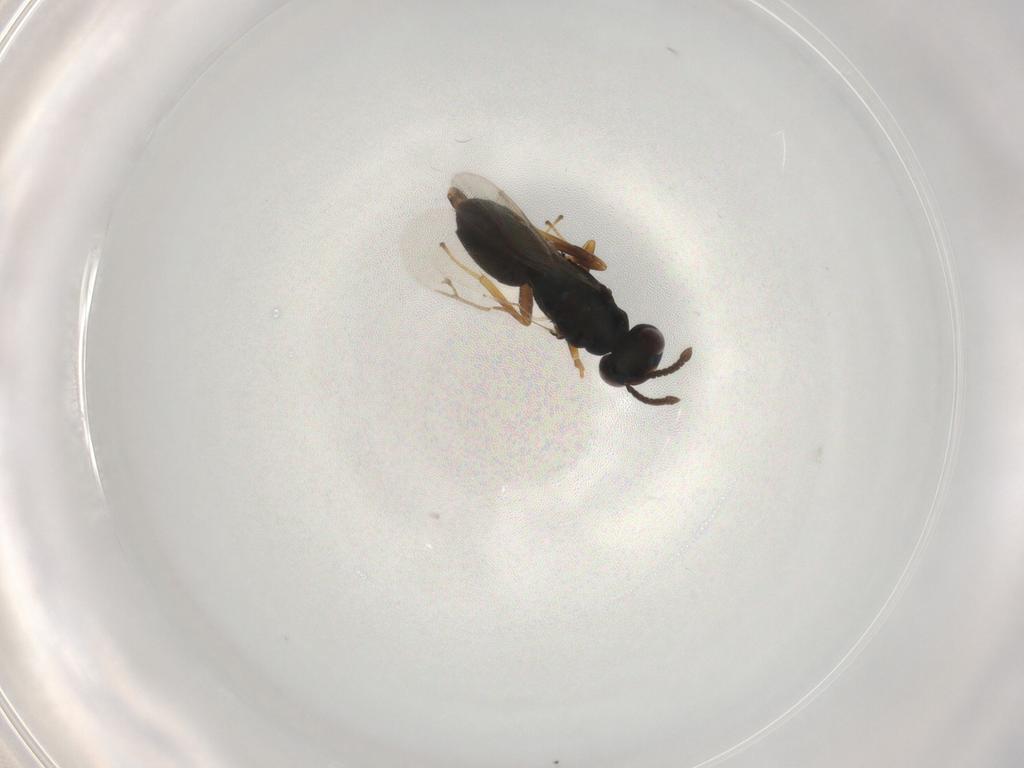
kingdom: Animalia
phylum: Arthropoda
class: Insecta
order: Hymenoptera
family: Pteromalidae
